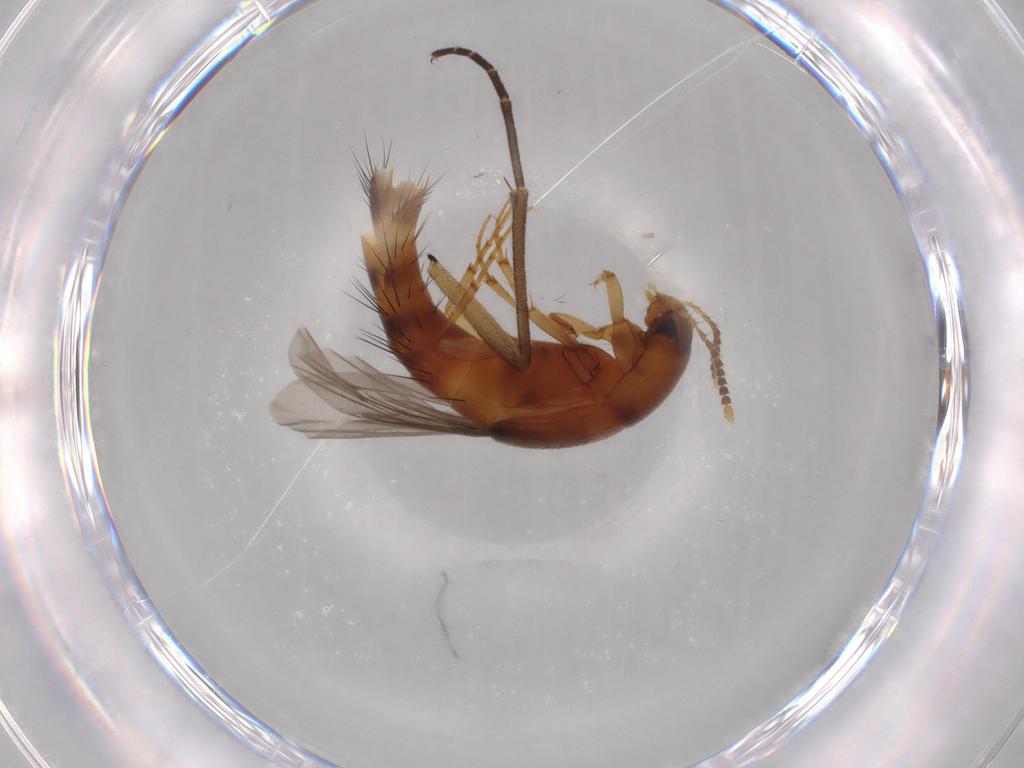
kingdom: Animalia
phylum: Arthropoda
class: Insecta
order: Coleoptera
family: Staphylinidae
